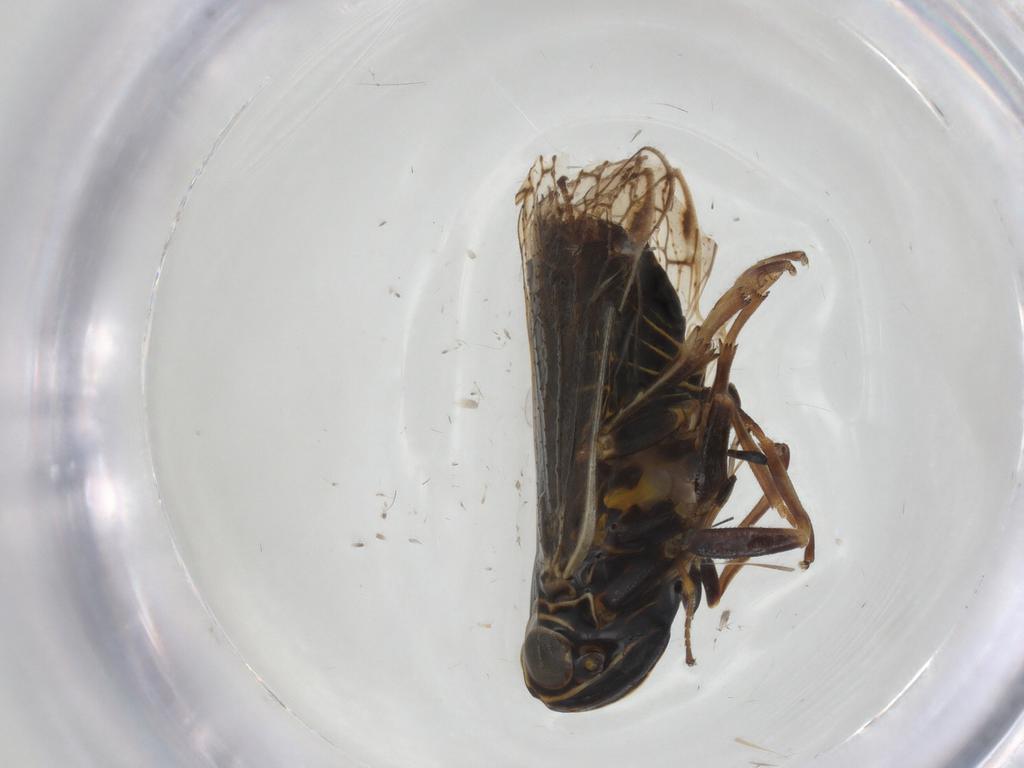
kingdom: Animalia
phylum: Arthropoda
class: Insecta
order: Hemiptera
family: Cixiidae
